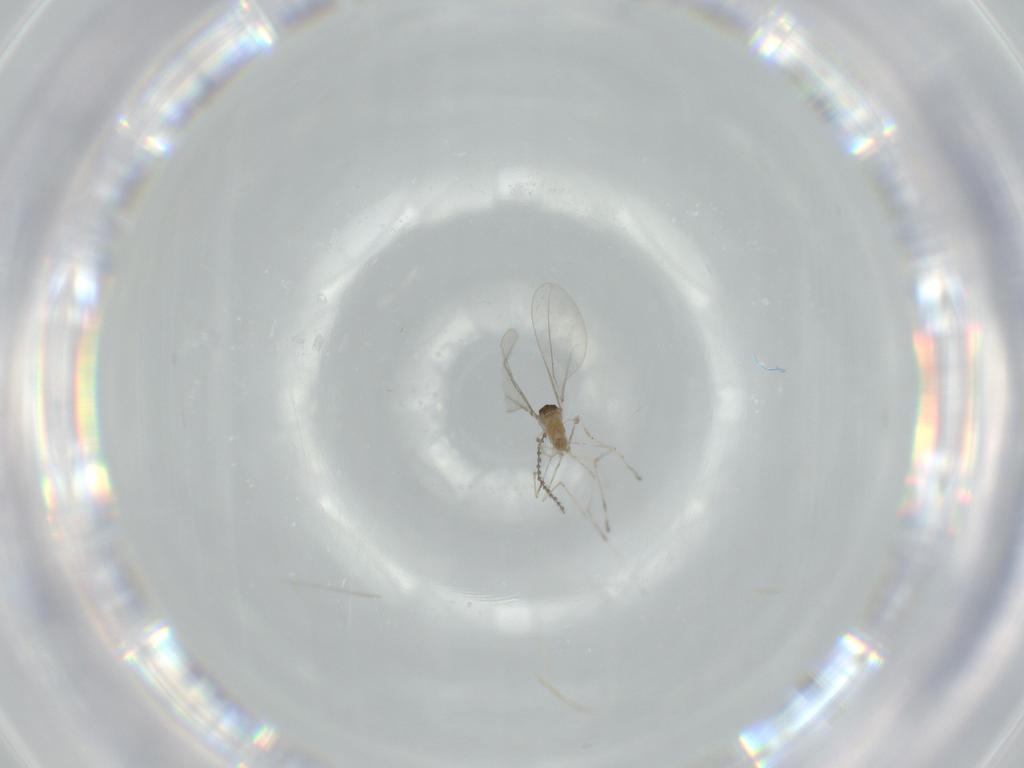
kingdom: Animalia
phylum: Arthropoda
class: Insecta
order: Diptera
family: Cecidomyiidae
